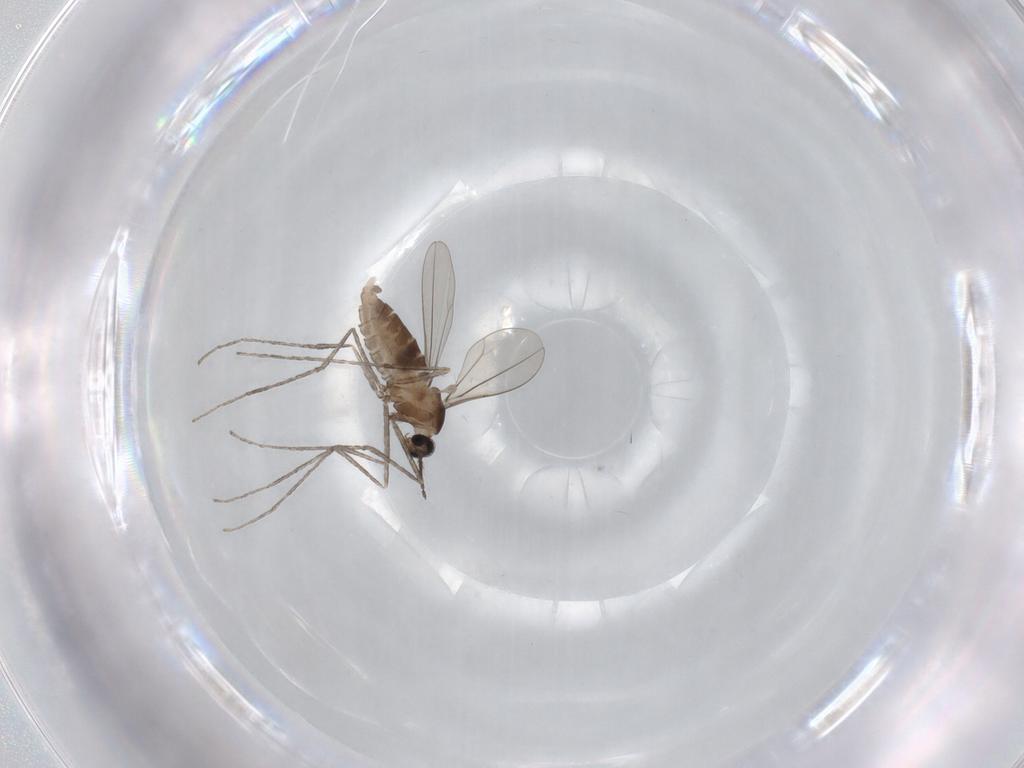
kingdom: Animalia
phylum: Arthropoda
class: Insecta
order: Diptera
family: Cecidomyiidae
